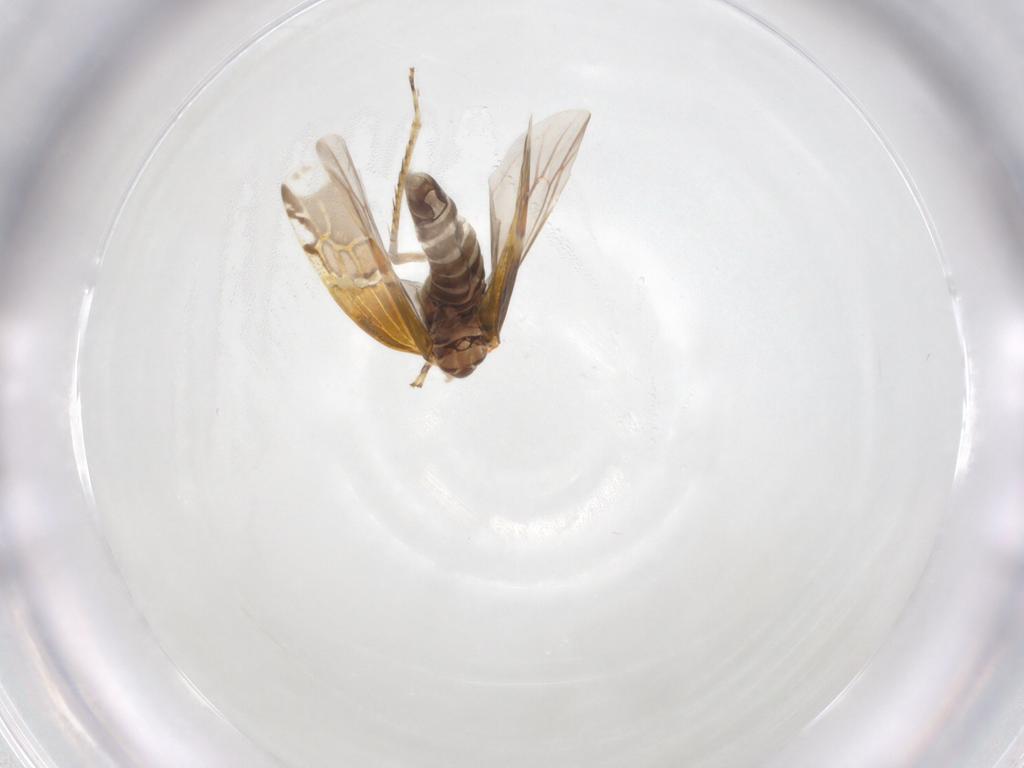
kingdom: Animalia
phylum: Arthropoda
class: Insecta
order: Hemiptera
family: Cicadellidae
